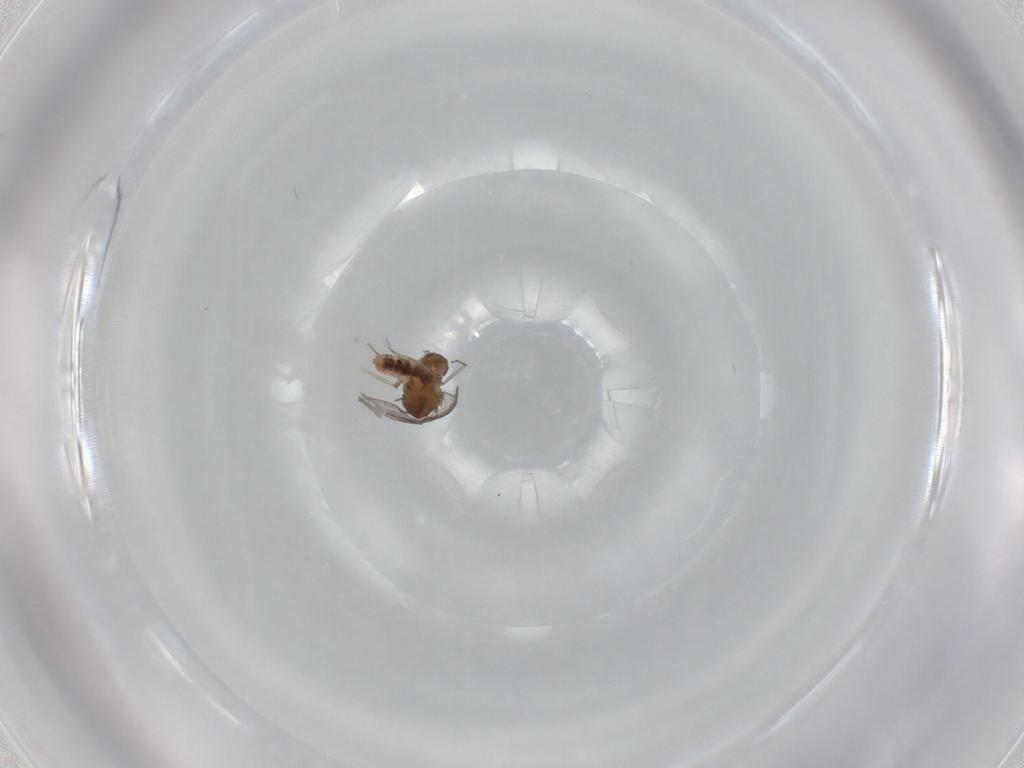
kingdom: Animalia
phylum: Arthropoda
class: Insecta
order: Diptera
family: Sciaridae
